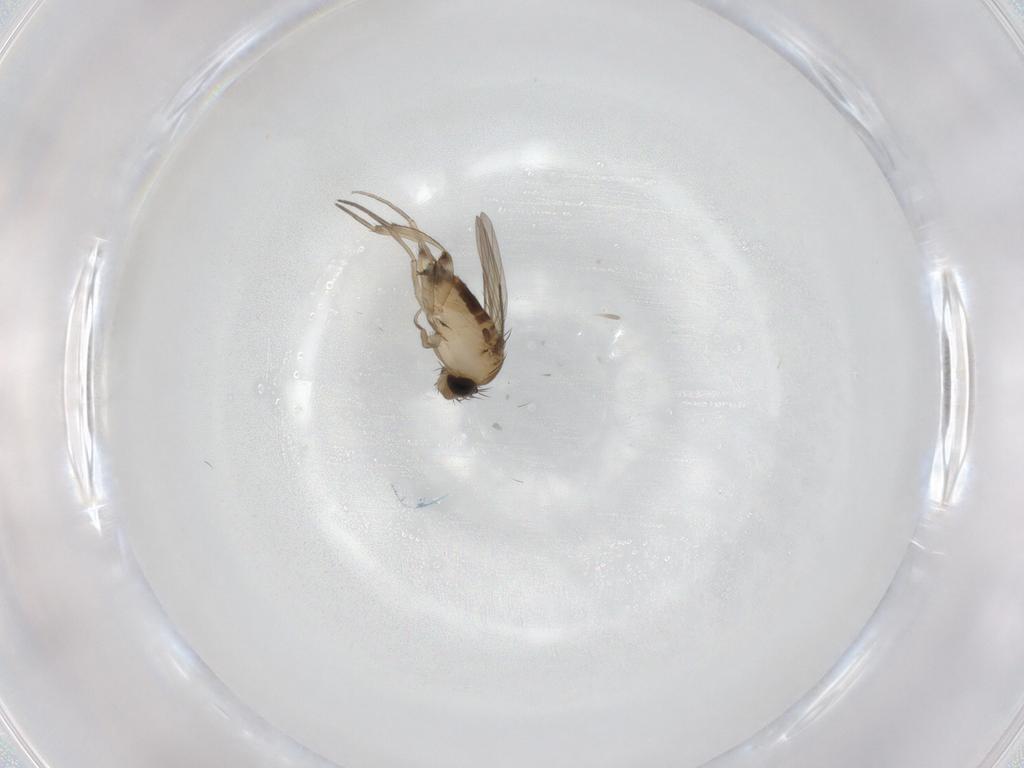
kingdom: Animalia
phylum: Arthropoda
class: Insecta
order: Diptera
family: Phoridae
